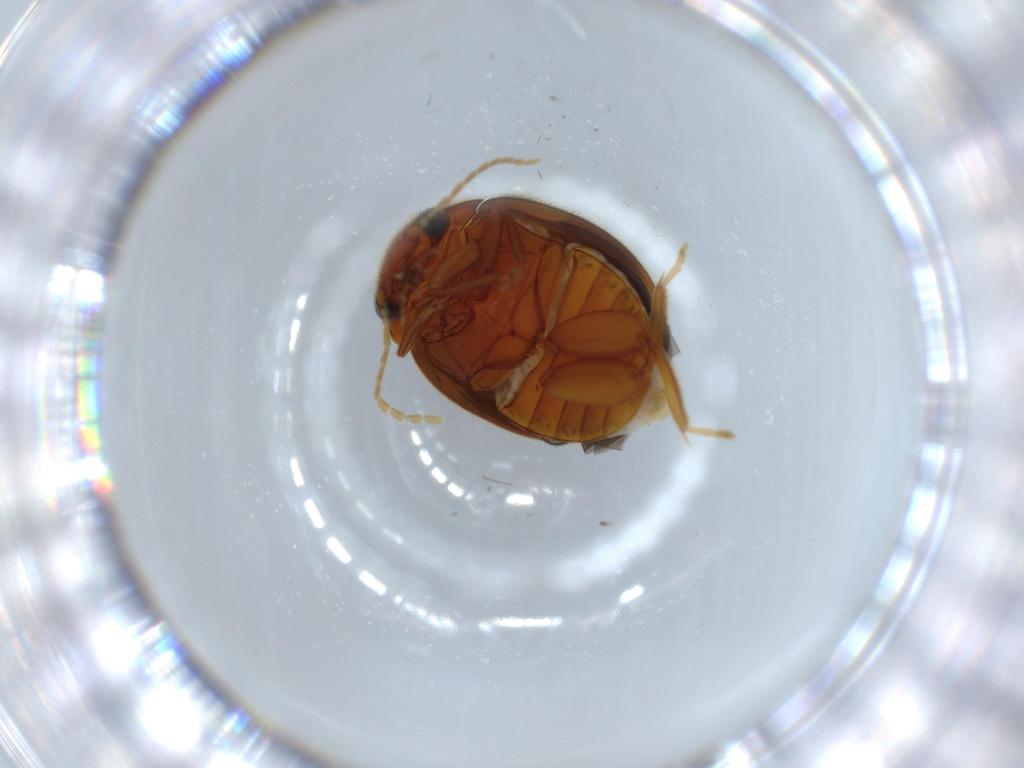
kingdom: Animalia
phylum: Arthropoda
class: Insecta
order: Coleoptera
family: Scirtidae
